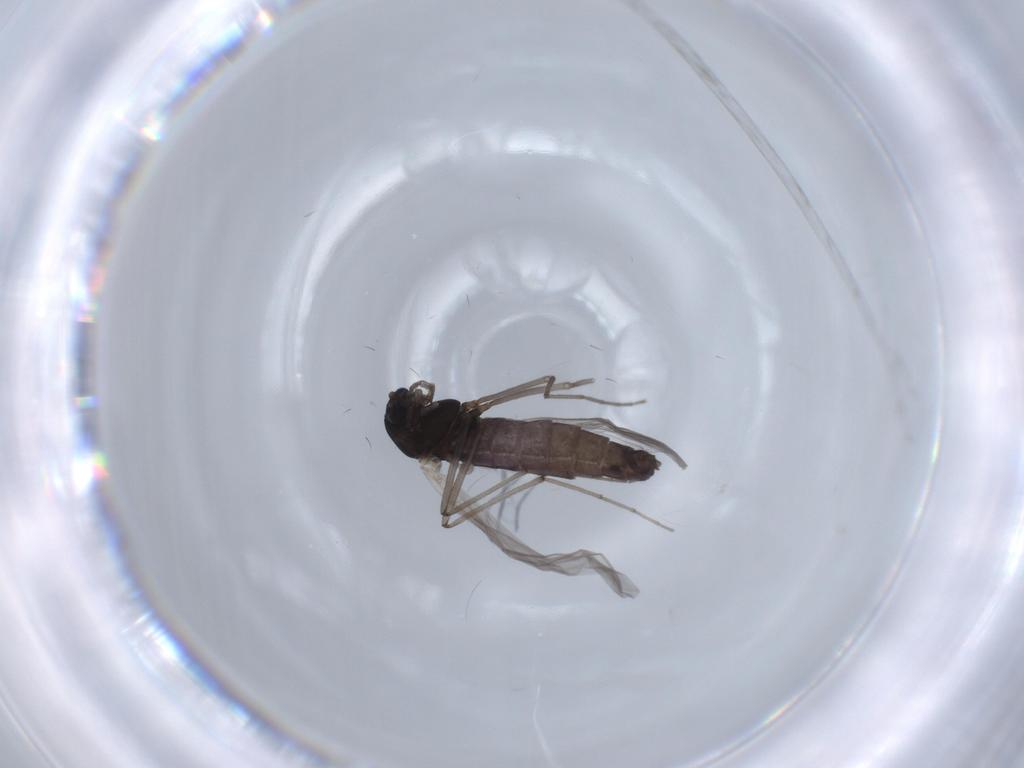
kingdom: Animalia
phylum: Arthropoda
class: Insecta
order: Diptera
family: Chironomidae
